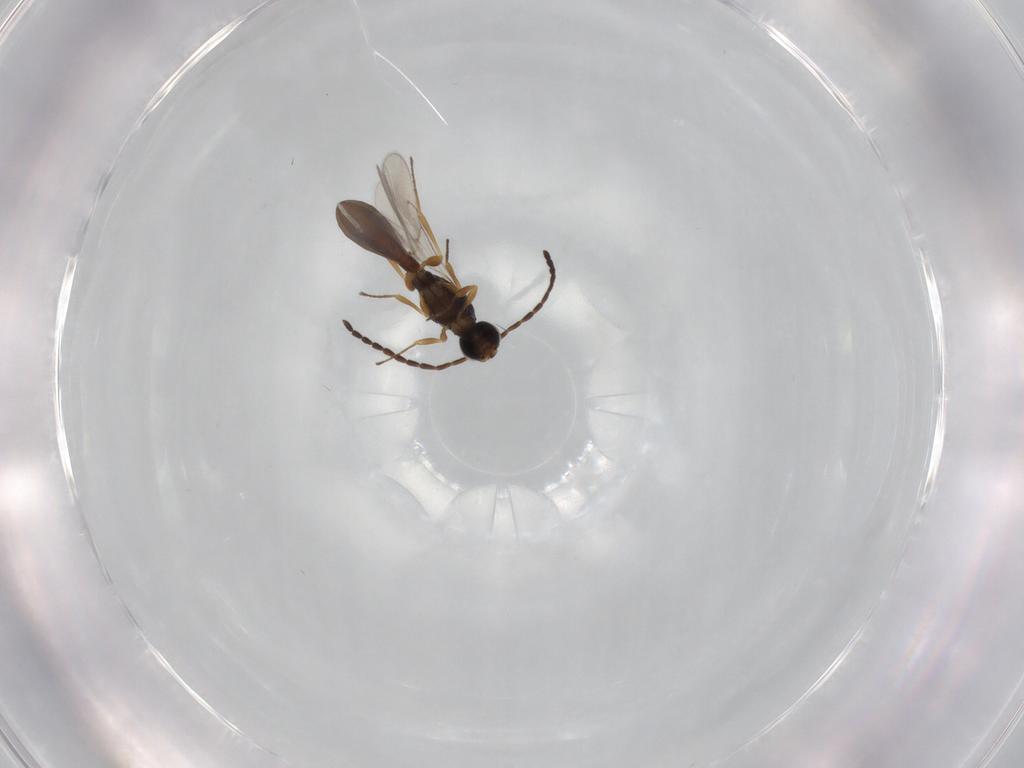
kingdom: Animalia
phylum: Arthropoda
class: Insecta
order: Hymenoptera
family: Scelionidae
